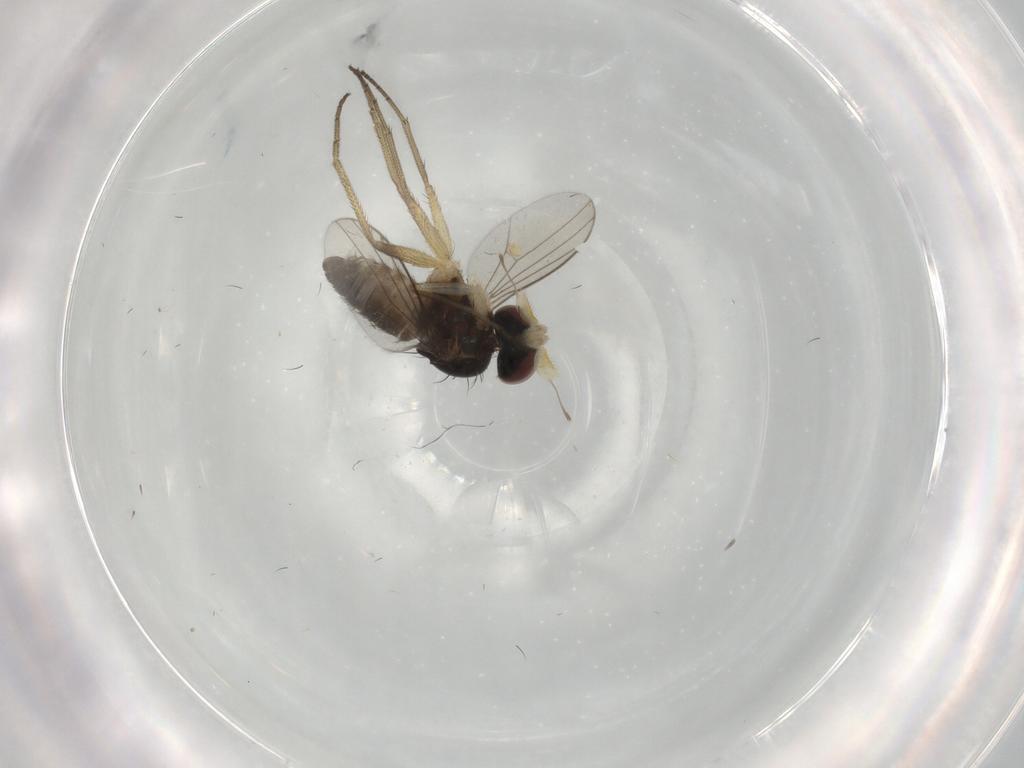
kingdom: Animalia
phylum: Arthropoda
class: Insecta
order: Diptera
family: Dolichopodidae
